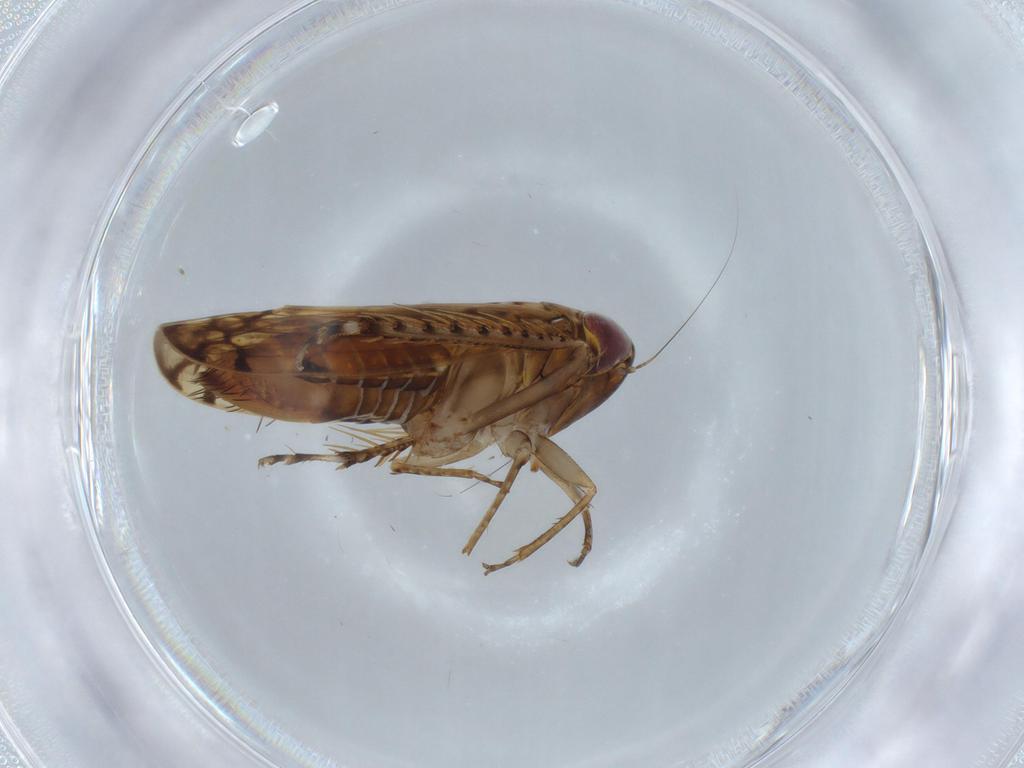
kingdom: Animalia
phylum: Arthropoda
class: Insecta
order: Hemiptera
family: Cicadellidae
